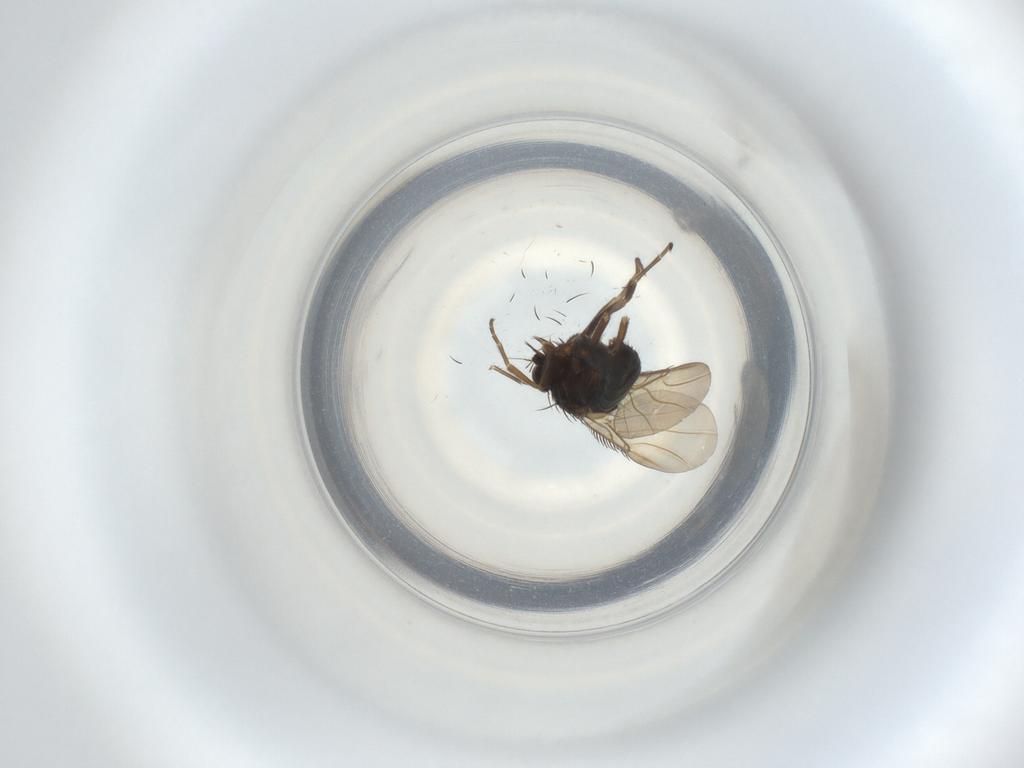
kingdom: Animalia
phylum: Arthropoda
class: Insecta
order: Diptera
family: Phoridae
